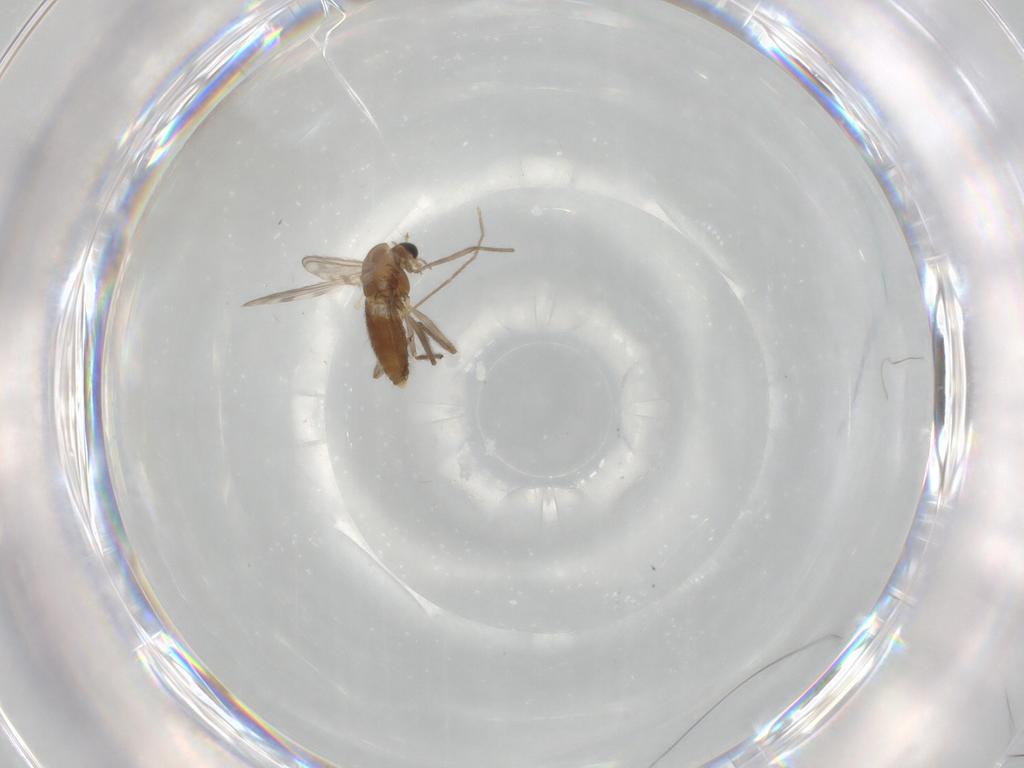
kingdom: Animalia
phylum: Arthropoda
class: Insecta
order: Diptera
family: Chironomidae
